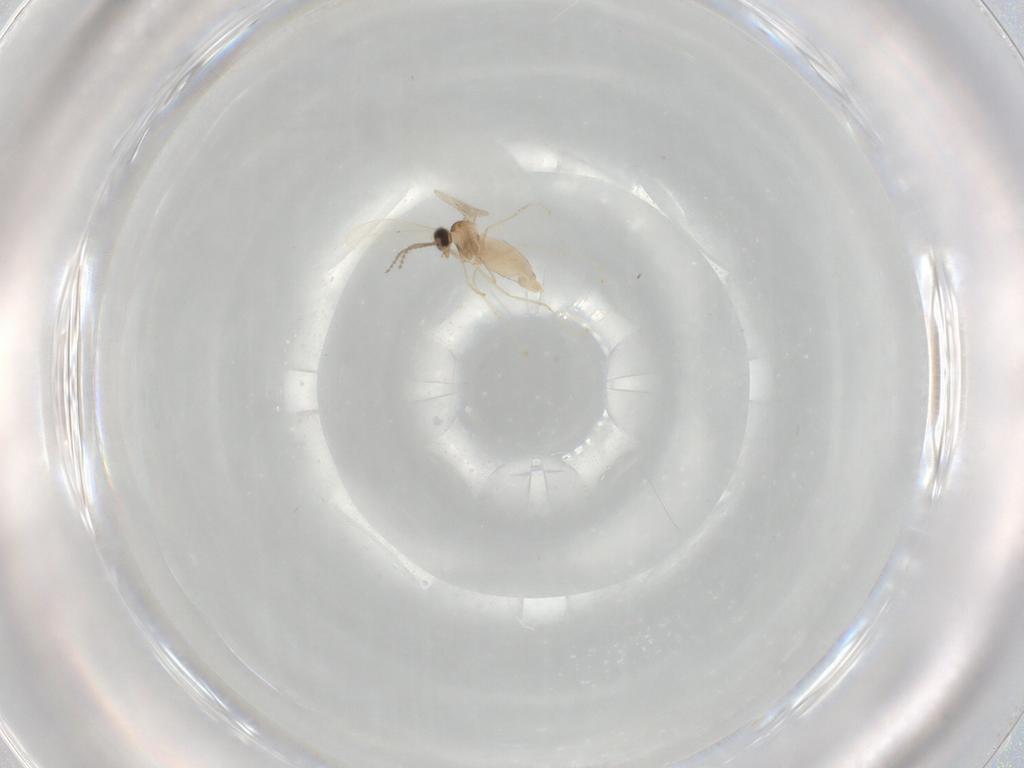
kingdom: Animalia
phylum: Arthropoda
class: Insecta
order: Diptera
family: Cecidomyiidae
